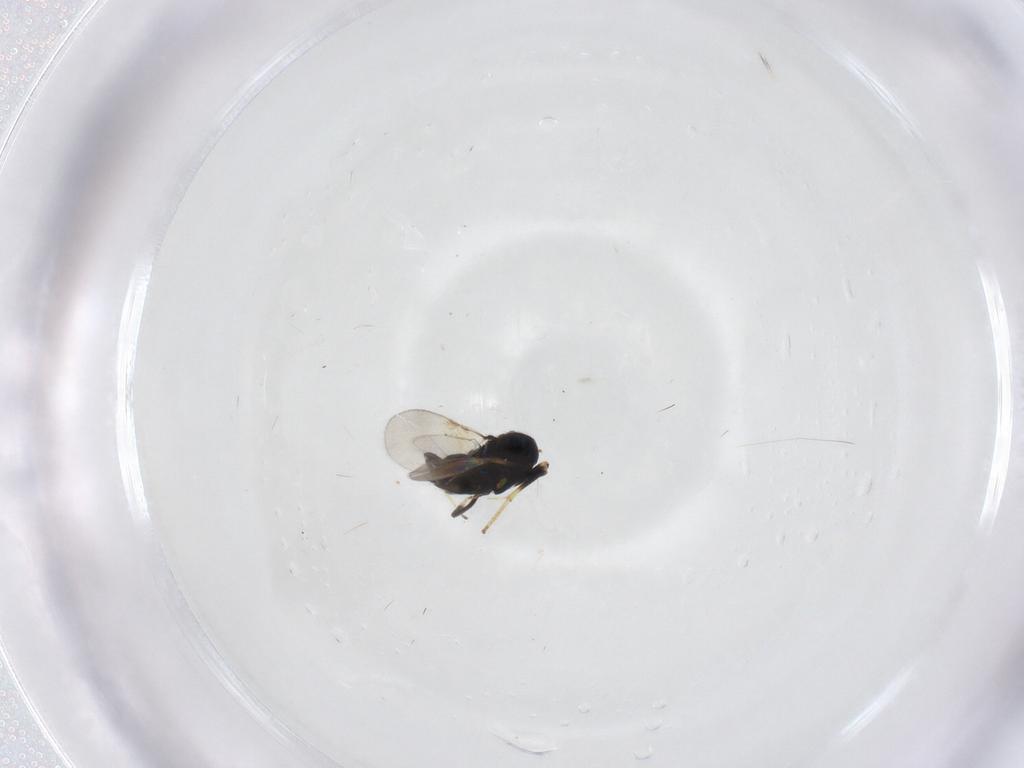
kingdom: Animalia
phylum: Arthropoda
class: Insecta
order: Hymenoptera
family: Encyrtidae
